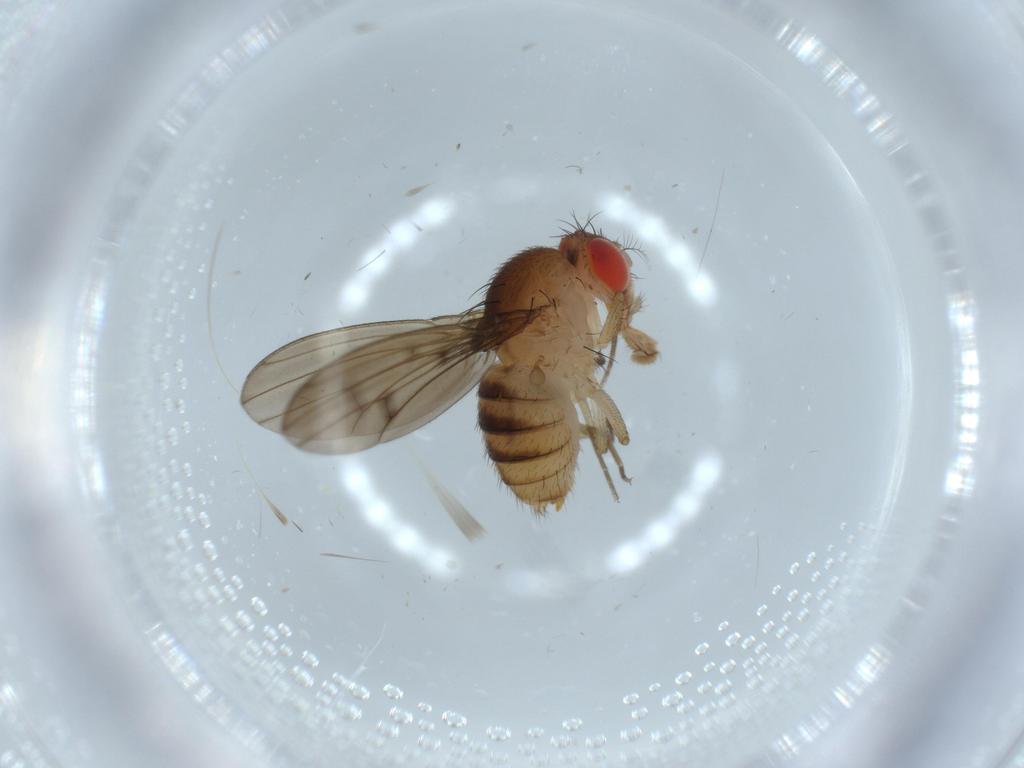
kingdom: Animalia
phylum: Arthropoda
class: Insecta
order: Diptera
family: Drosophilidae
